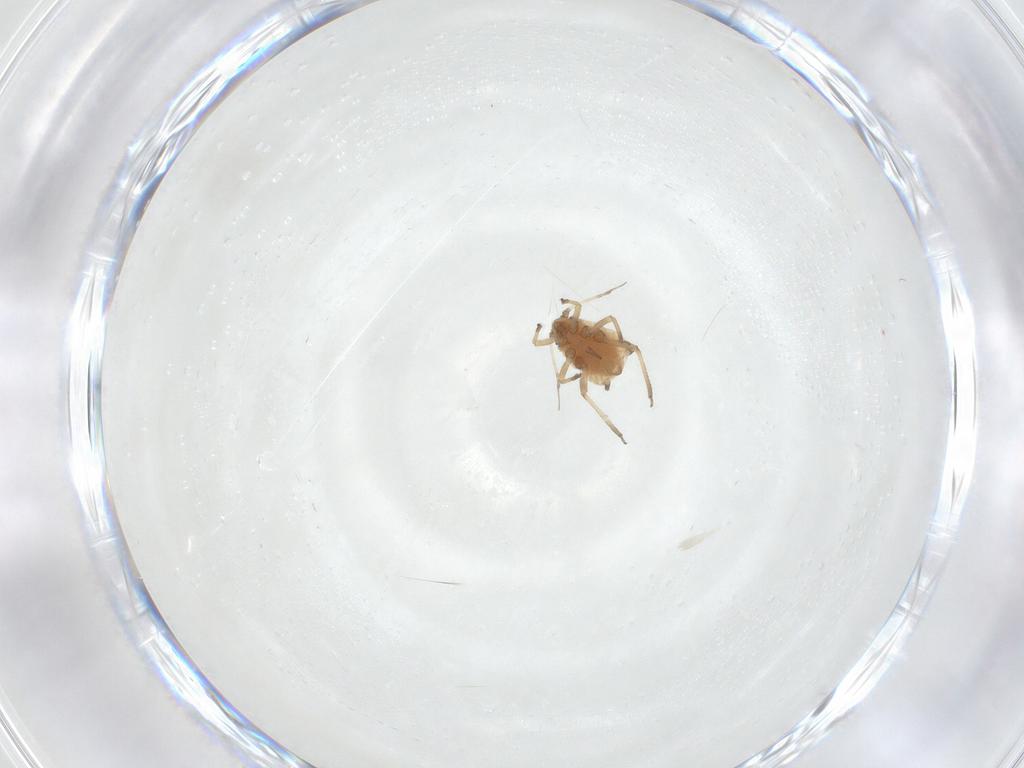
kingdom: Animalia
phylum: Arthropoda
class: Insecta
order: Hemiptera
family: Aphididae
